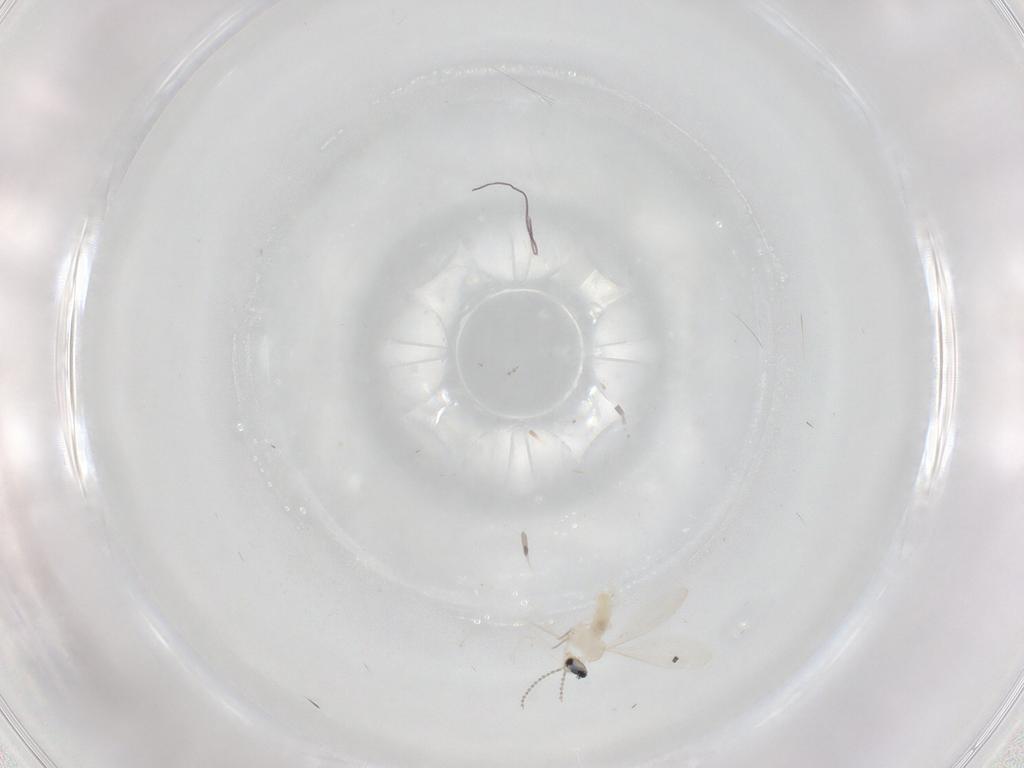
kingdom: Animalia
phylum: Arthropoda
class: Insecta
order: Diptera
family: Cecidomyiidae
